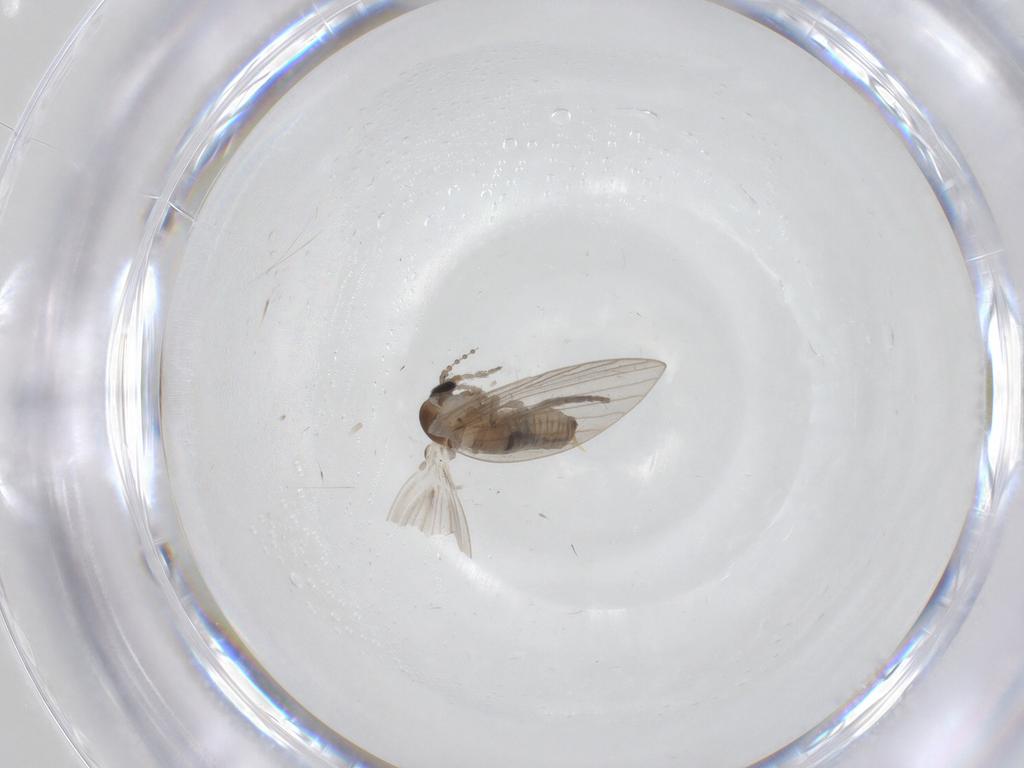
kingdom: Animalia
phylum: Arthropoda
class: Insecta
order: Diptera
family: Psychodidae
